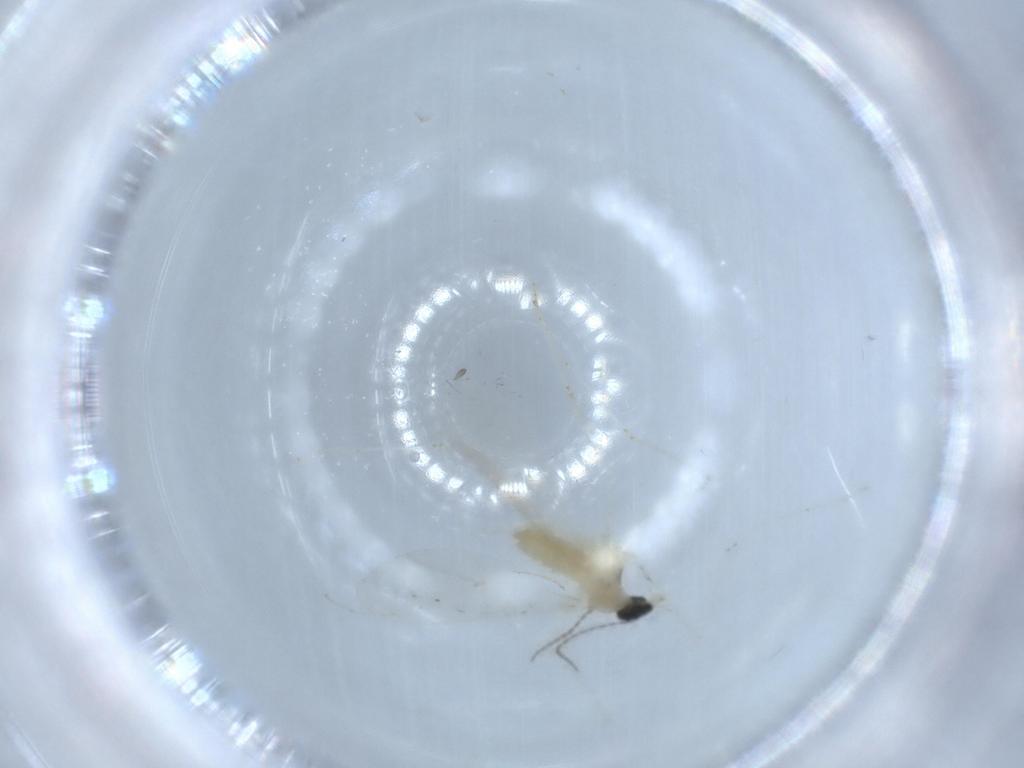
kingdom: Animalia
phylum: Arthropoda
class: Insecta
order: Diptera
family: Cecidomyiidae
